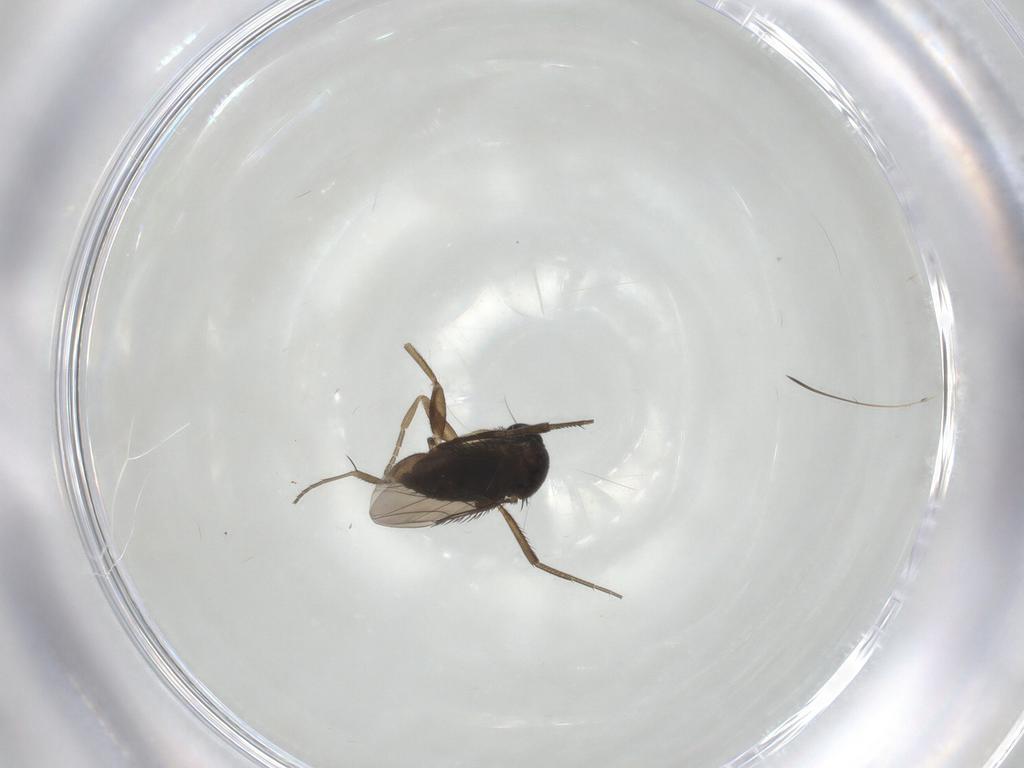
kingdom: Animalia
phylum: Arthropoda
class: Insecta
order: Diptera
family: Phoridae
